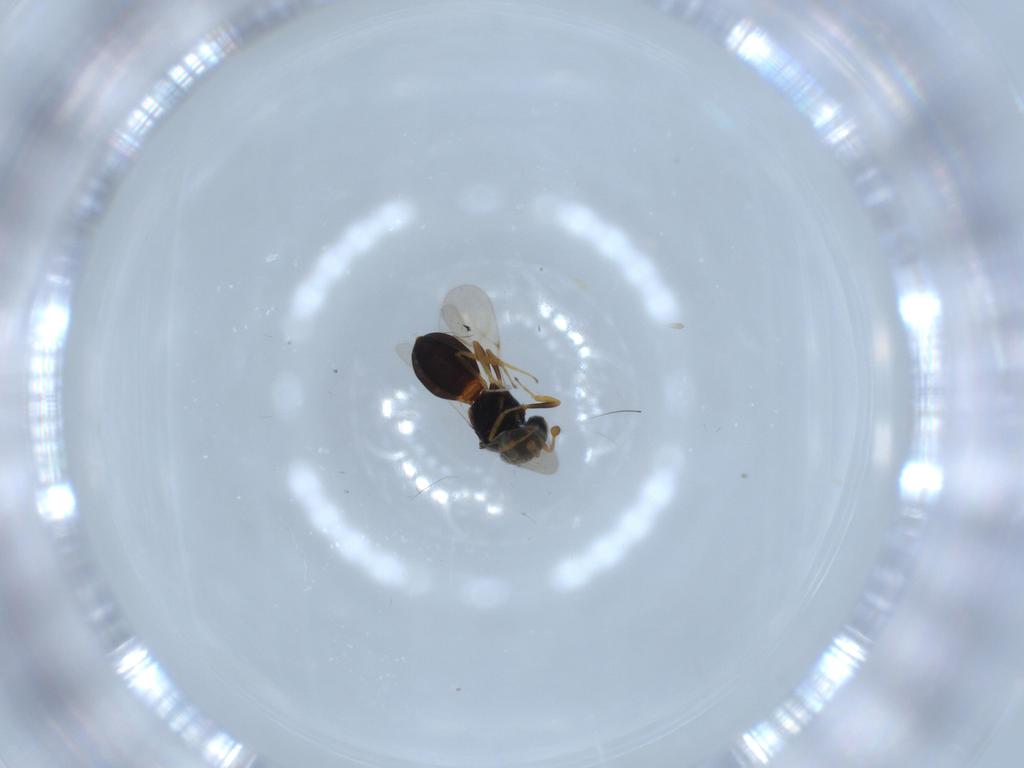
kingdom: Animalia
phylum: Arthropoda
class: Insecta
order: Hymenoptera
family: Scelionidae
